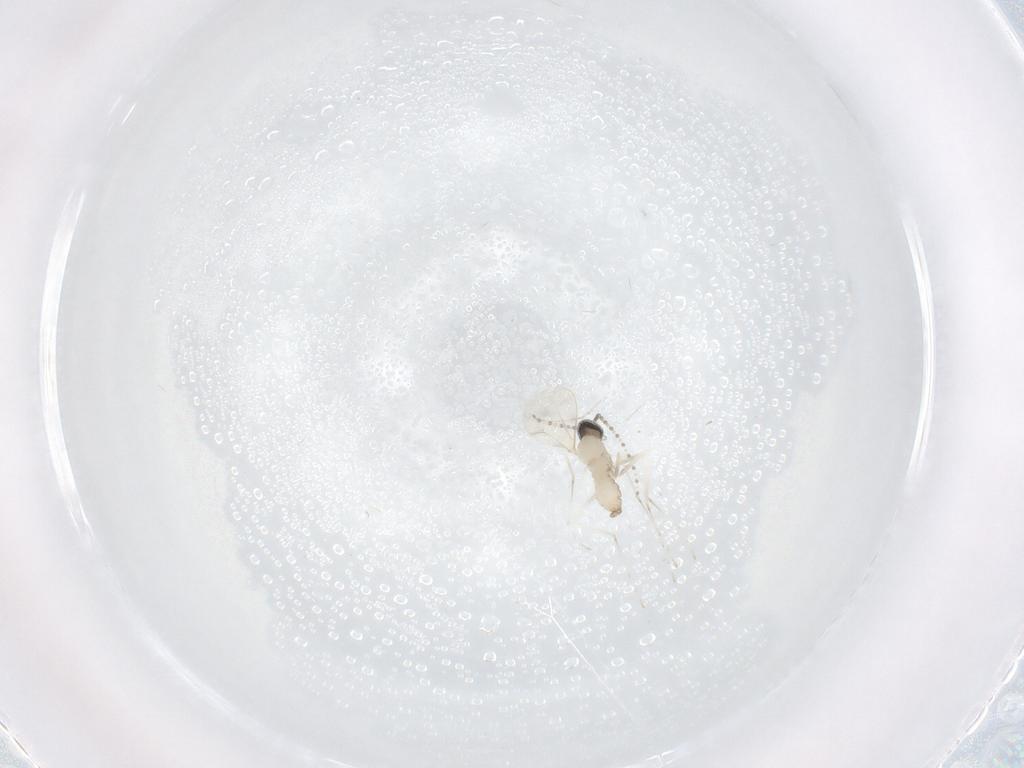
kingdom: Animalia
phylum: Arthropoda
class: Insecta
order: Diptera
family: Cecidomyiidae
